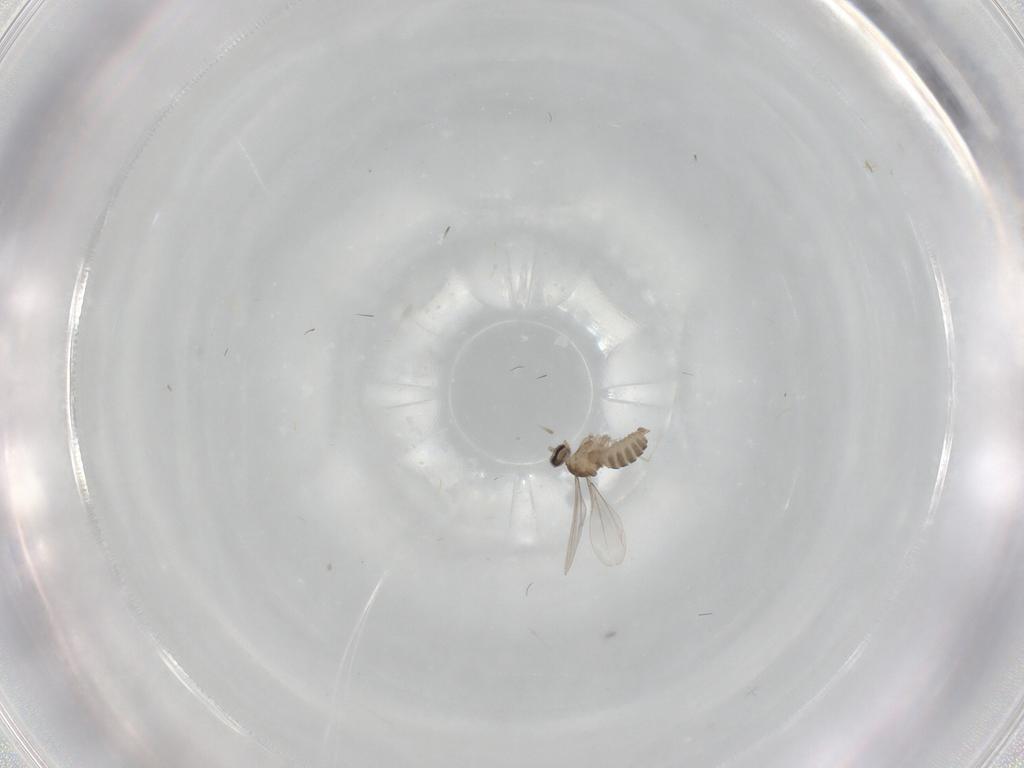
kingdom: Animalia
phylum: Arthropoda
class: Insecta
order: Diptera
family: Cecidomyiidae
